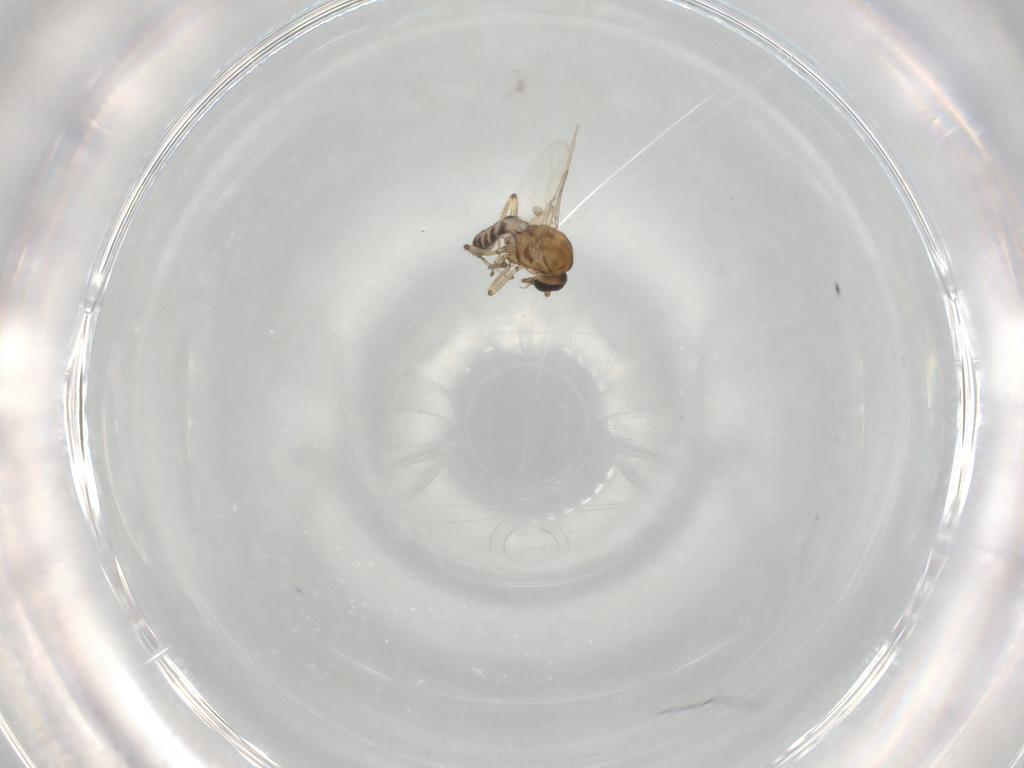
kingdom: Animalia
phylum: Arthropoda
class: Insecta
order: Diptera
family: Ceratopogonidae
